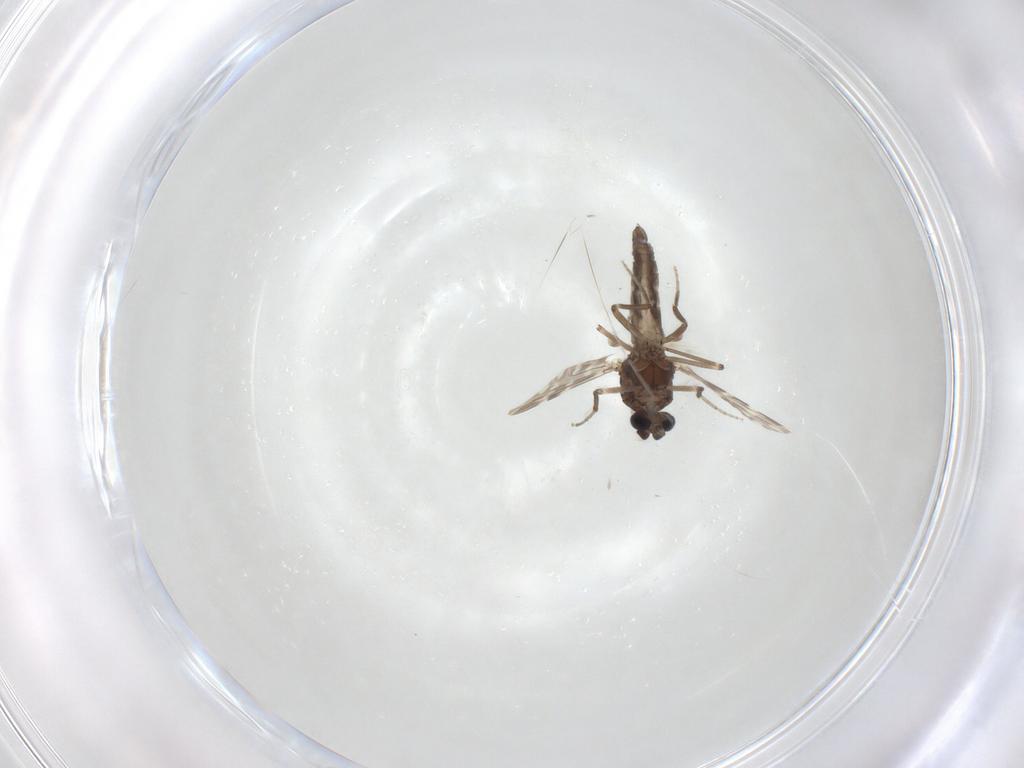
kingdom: Animalia
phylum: Arthropoda
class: Insecta
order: Diptera
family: Ceratopogonidae
